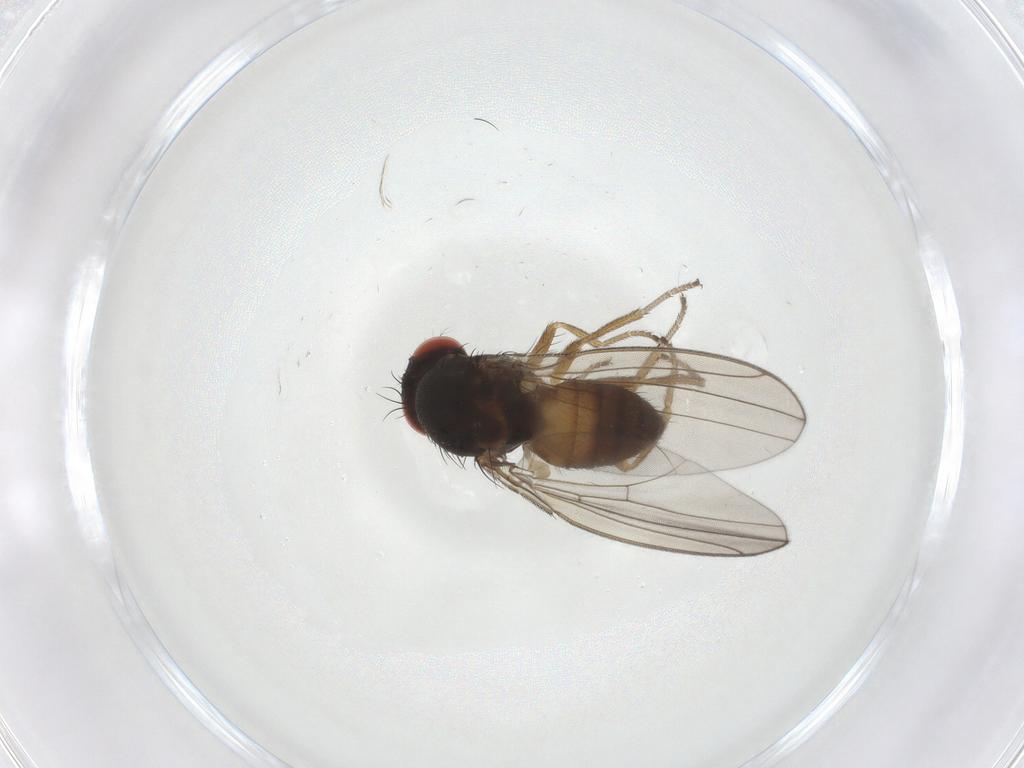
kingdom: Animalia
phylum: Arthropoda
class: Insecta
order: Diptera
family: Drosophilidae
